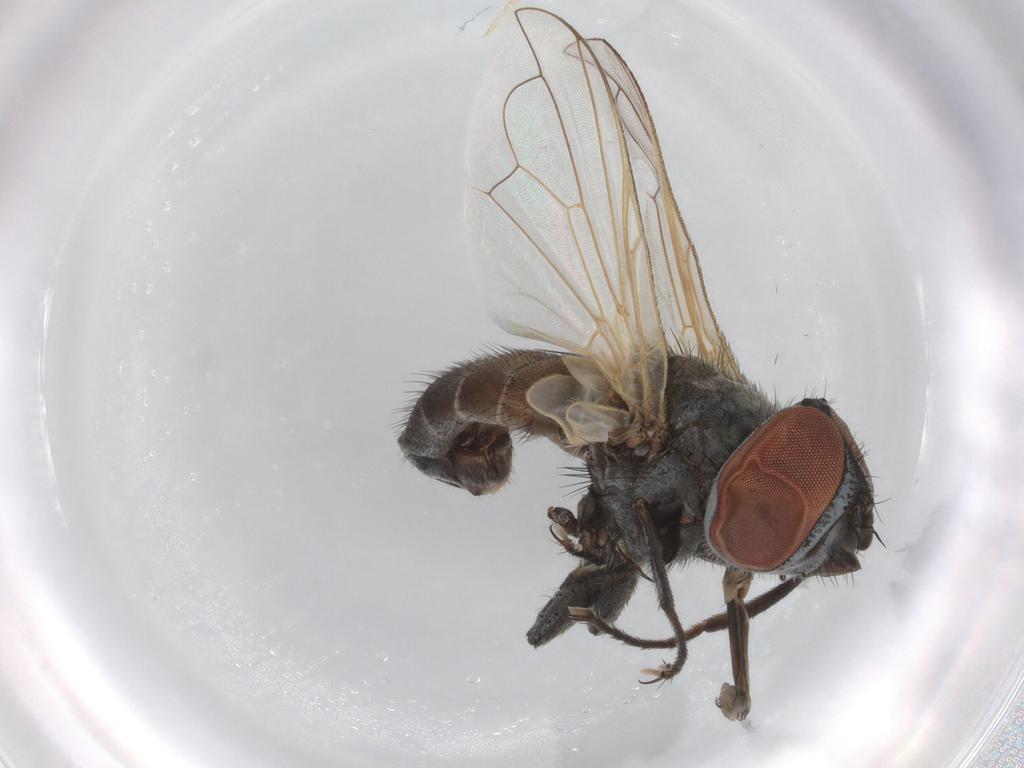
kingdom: Animalia
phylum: Arthropoda
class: Insecta
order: Diptera
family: Tachinidae
